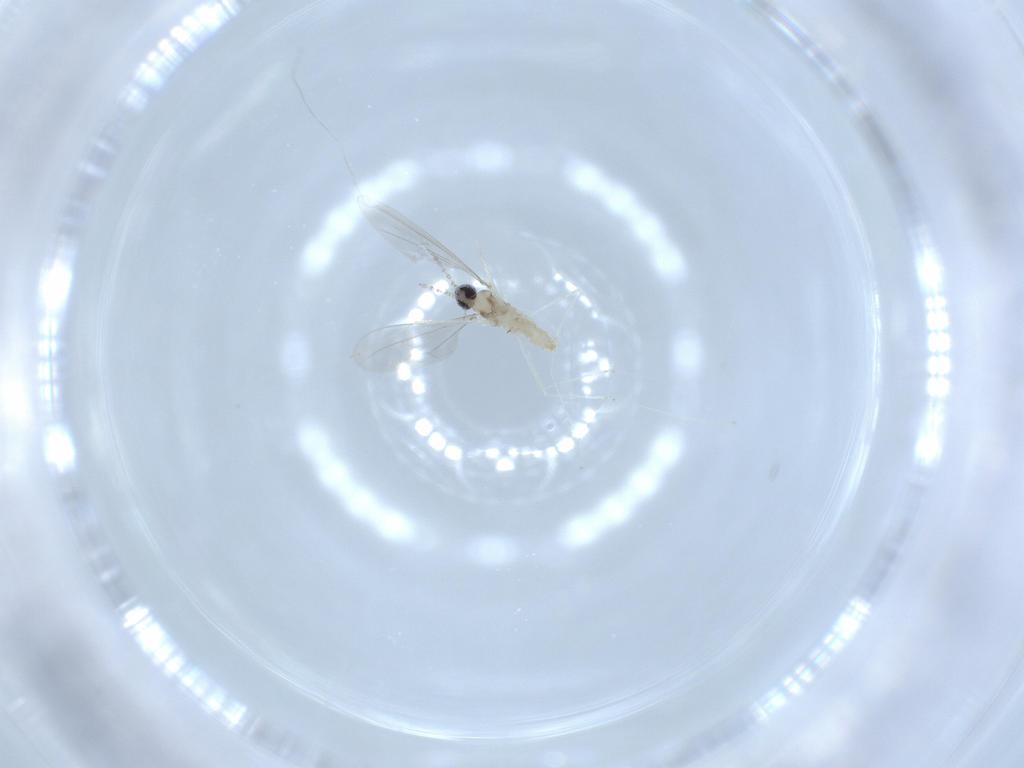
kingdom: Animalia
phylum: Arthropoda
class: Insecta
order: Diptera
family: Cecidomyiidae
